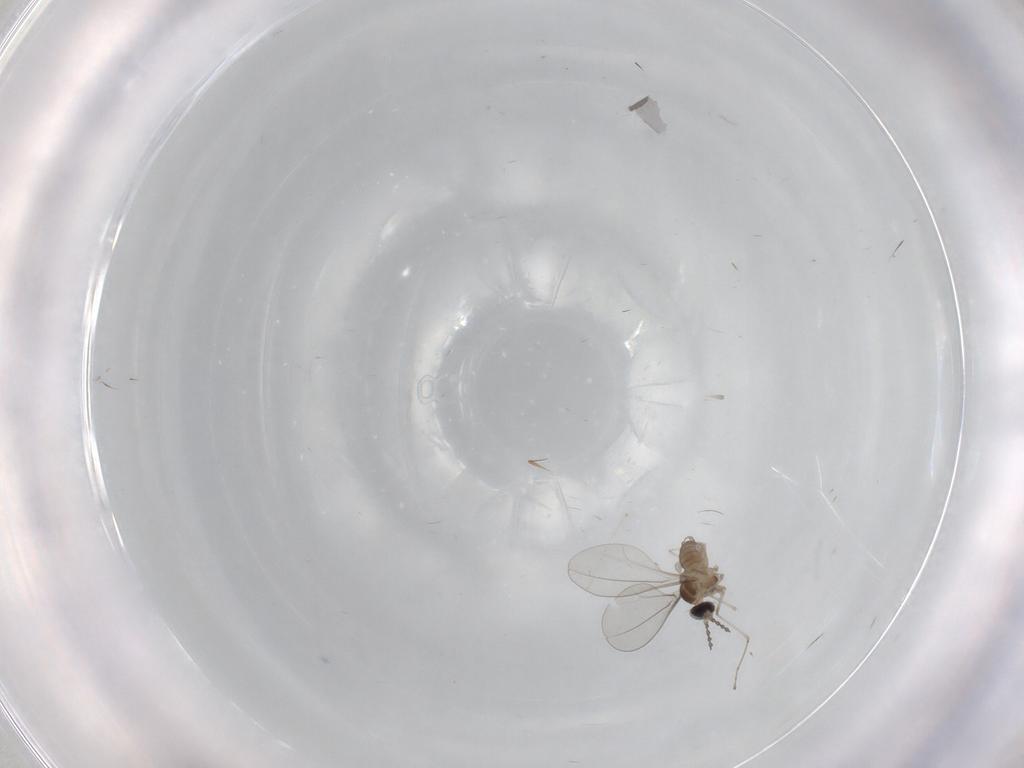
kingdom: Animalia
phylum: Arthropoda
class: Insecta
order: Diptera
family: Cecidomyiidae
